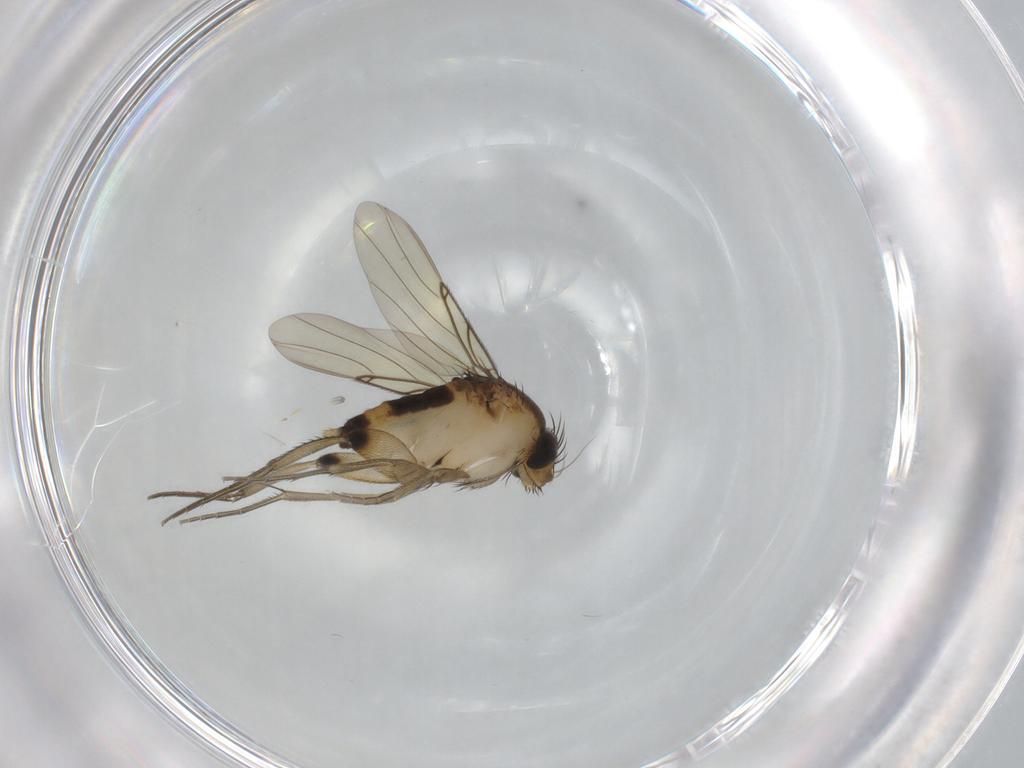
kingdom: Animalia
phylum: Arthropoda
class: Insecta
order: Diptera
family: Phoridae
